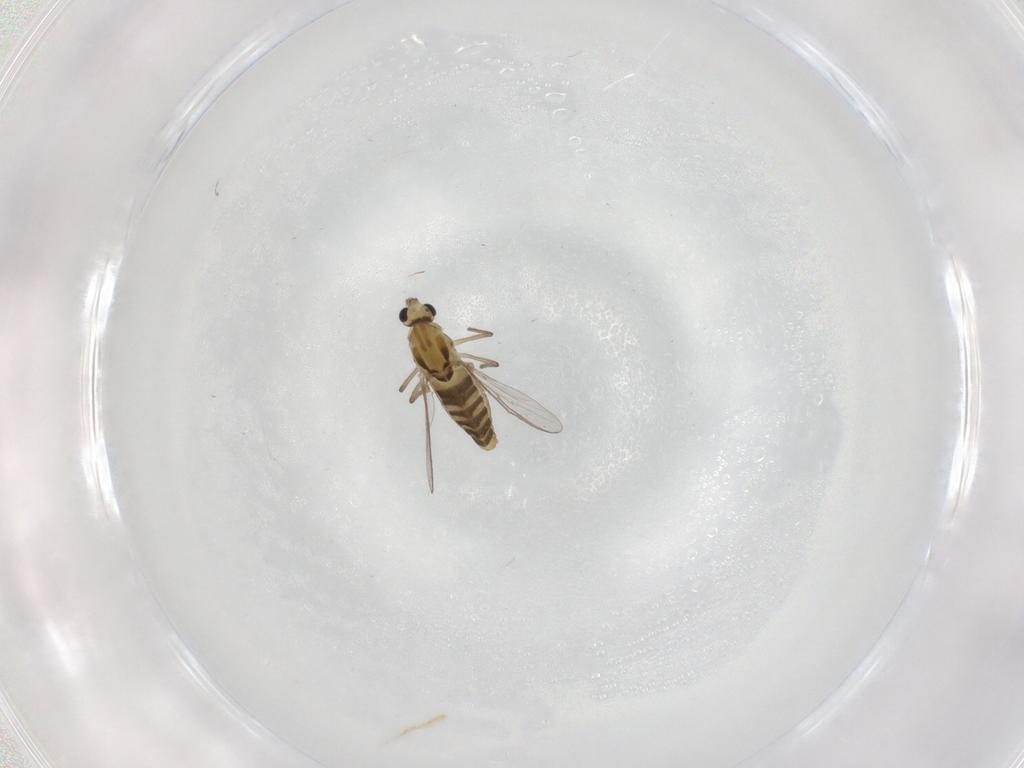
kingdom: Animalia
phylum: Arthropoda
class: Insecta
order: Diptera
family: Chironomidae
